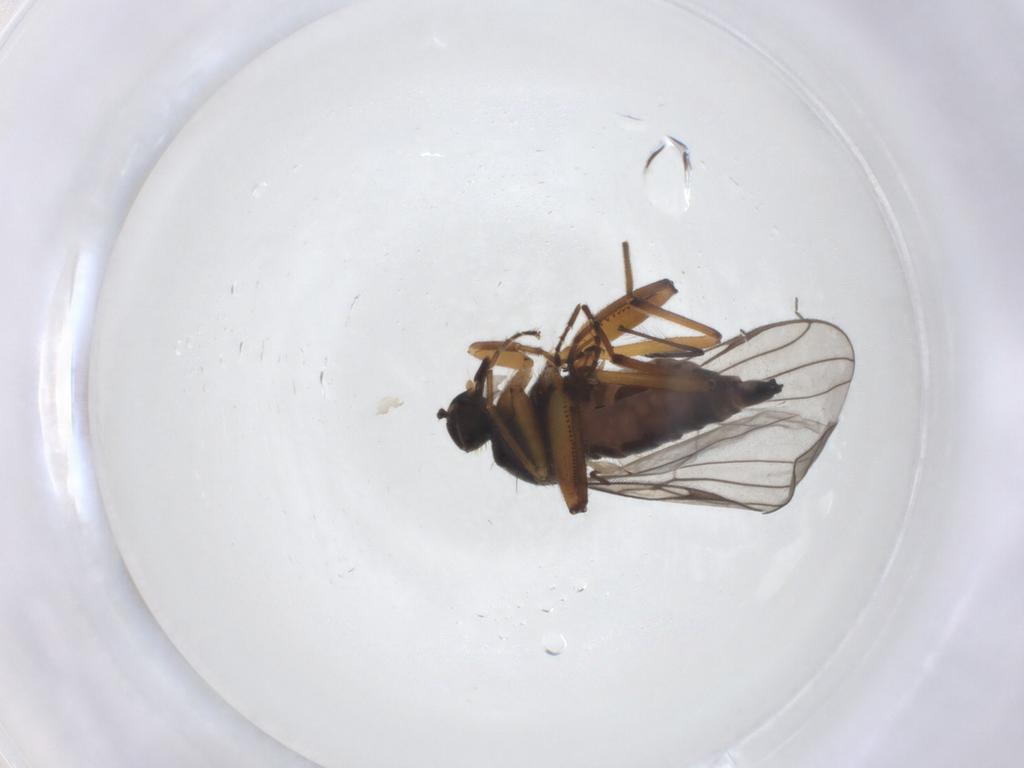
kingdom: Animalia
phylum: Arthropoda
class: Insecta
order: Diptera
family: Hybotidae
